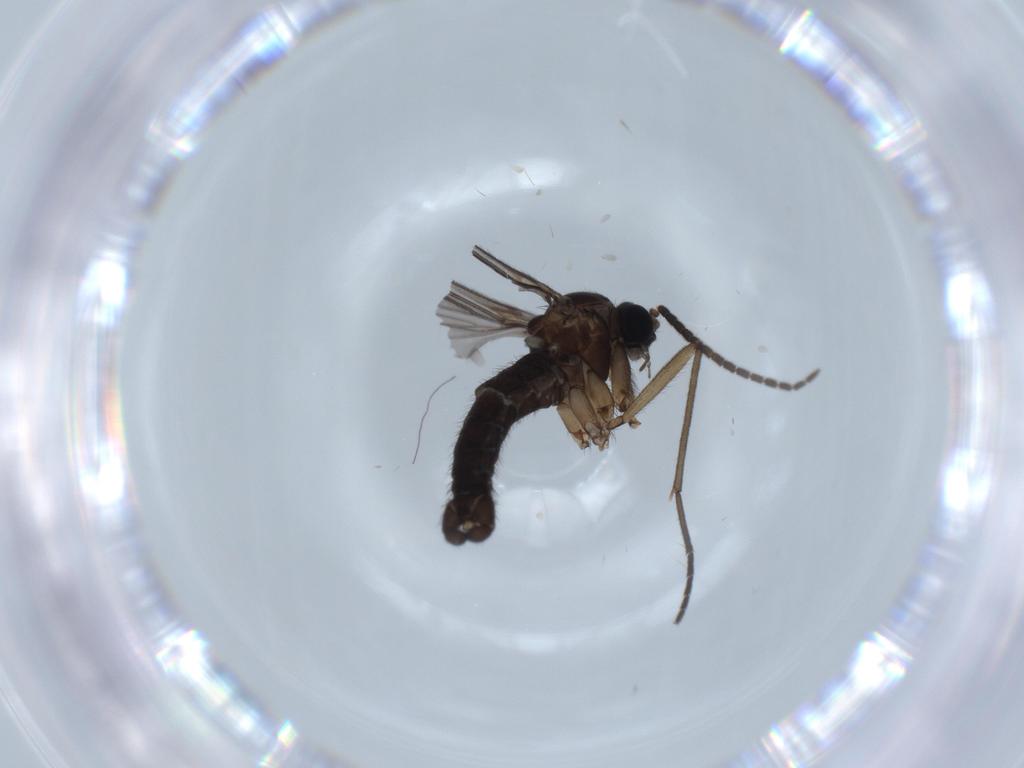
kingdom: Animalia
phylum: Arthropoda
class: Insecta
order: Diptera
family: Sciaridae
